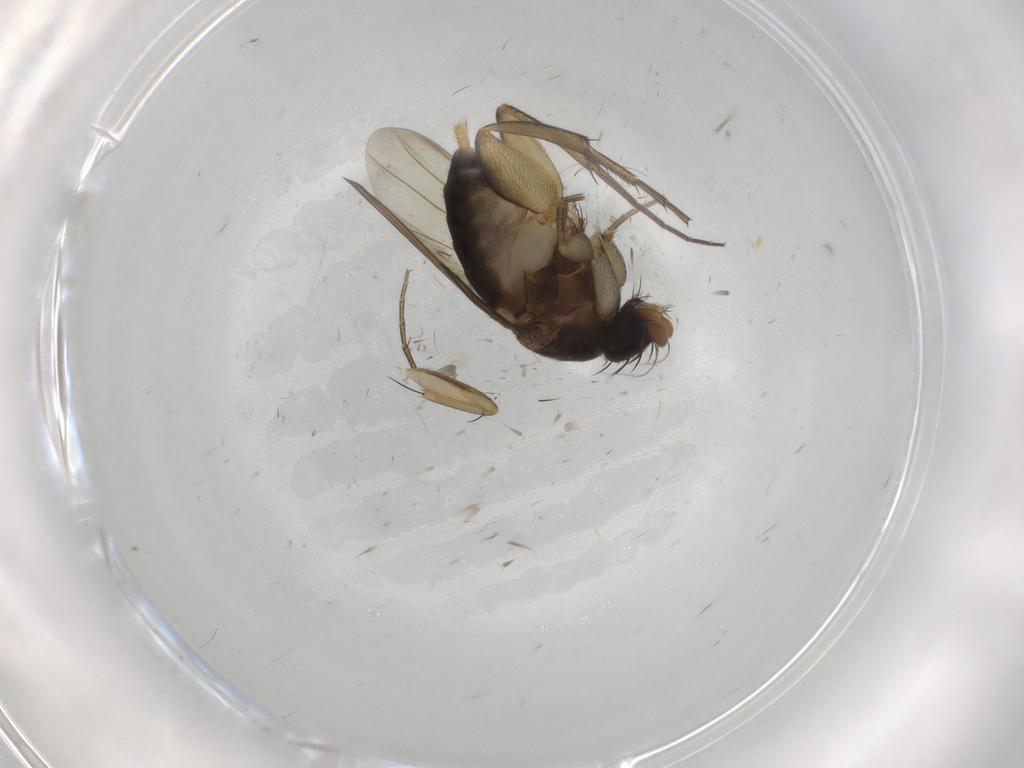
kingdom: Animalia
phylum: Arthropoda
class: Insecta
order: Diptera
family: Phoridae
